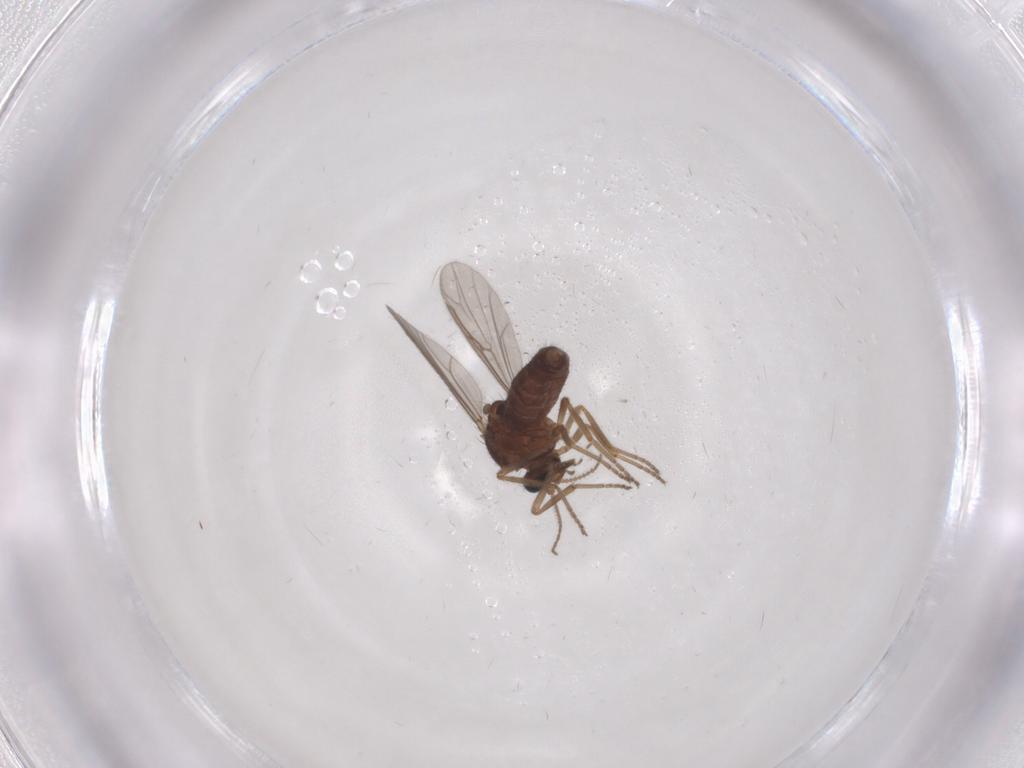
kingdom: Animalia
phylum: Arthropoda
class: Insecta
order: Diptera
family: Ceratopogonidae
